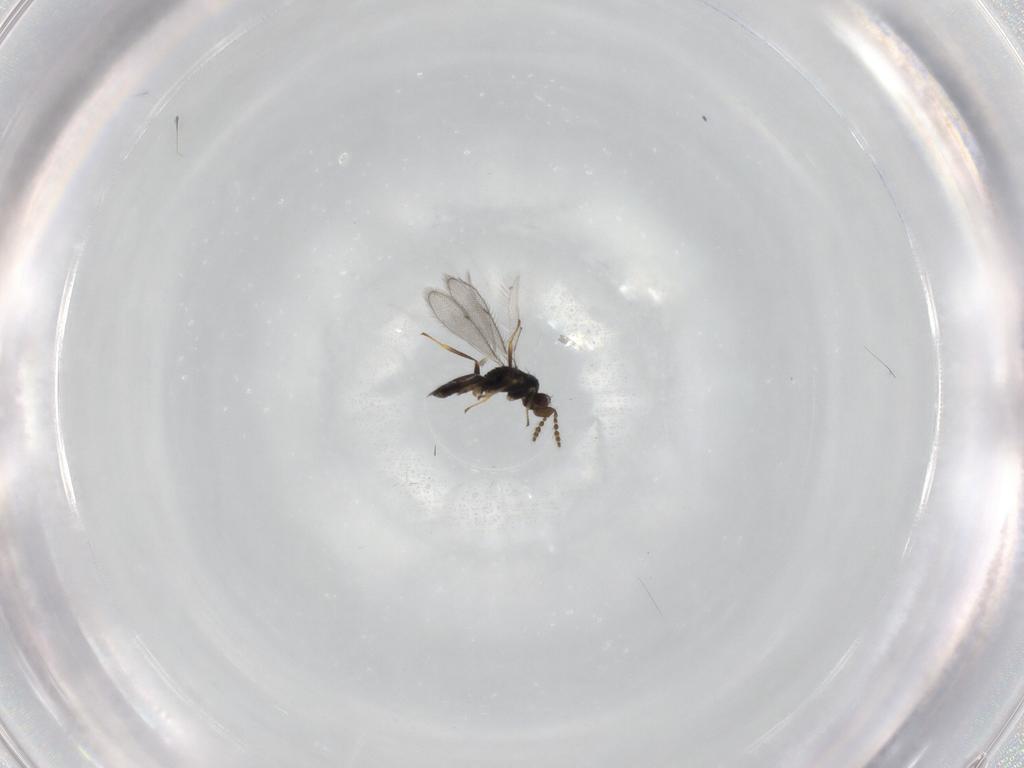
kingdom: Animalia
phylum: Arthropoda
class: Insecta
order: Hymenoptera
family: Eulophidae
